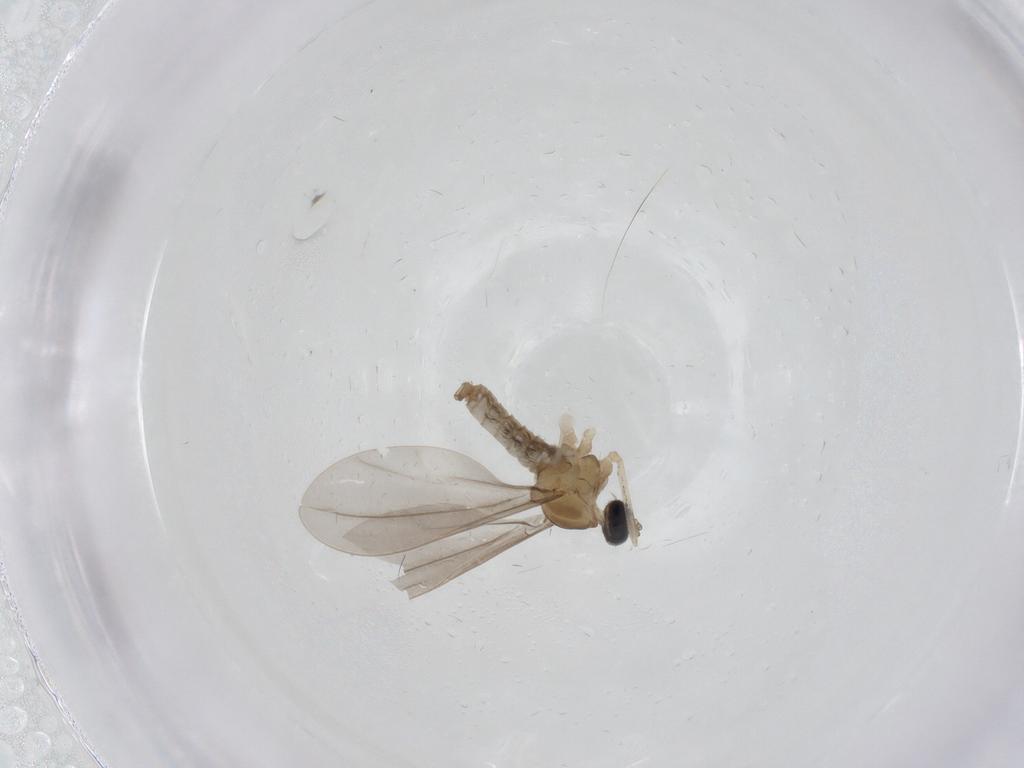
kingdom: Animalia
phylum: Arthropoda
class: Insecta
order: Diptera
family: Cecidomyiidae
